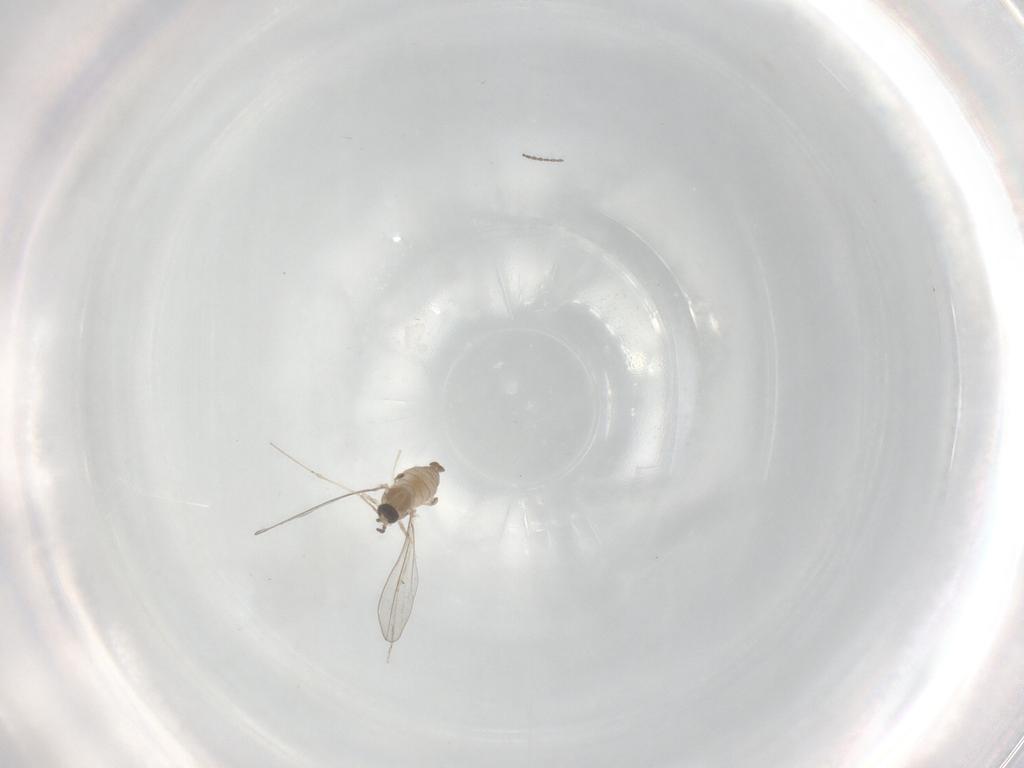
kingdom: Animalia
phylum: Arthropoda
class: Insecta
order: Diptera
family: Cecidomyiidae
